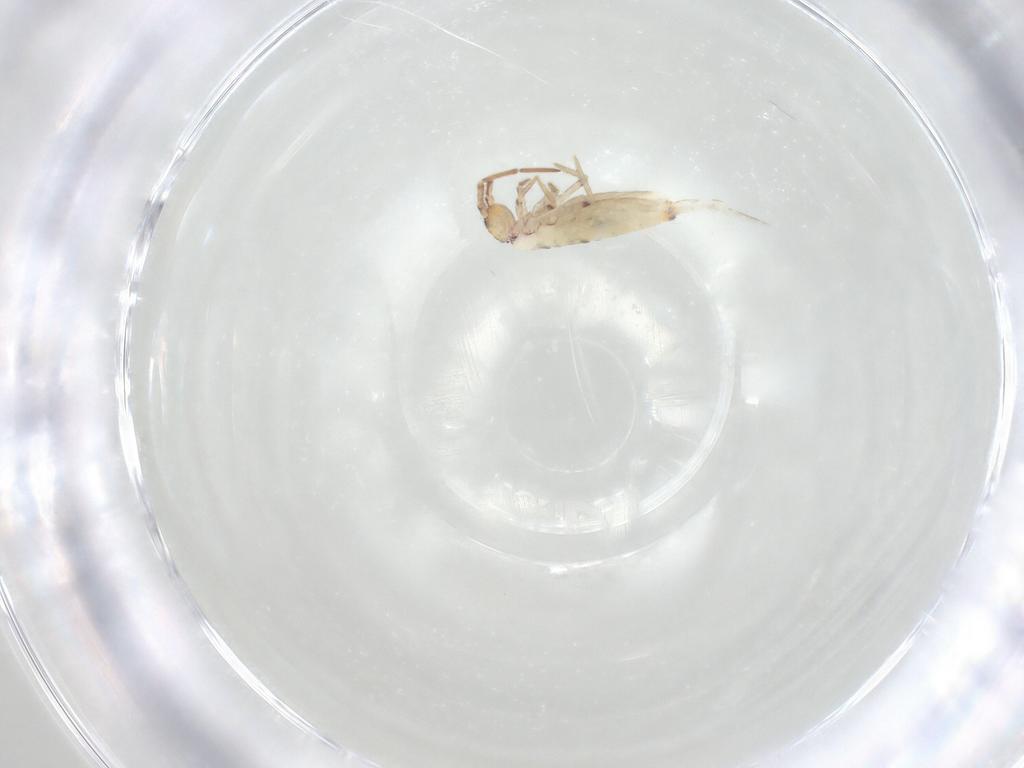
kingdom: Animalia
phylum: Arthropoda
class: Collembola
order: Entomobryomorpha
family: Entomobryidae
